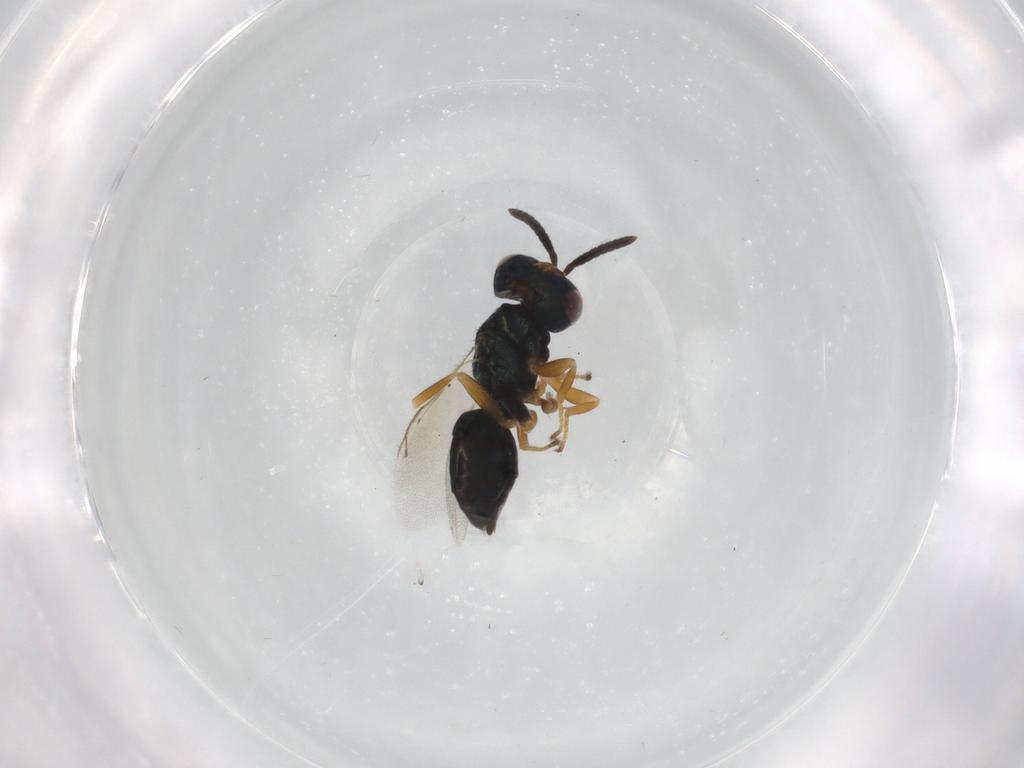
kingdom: Animalia
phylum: Arthropoda
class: Insecta
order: Hymenoptera
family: Pteromalidae
